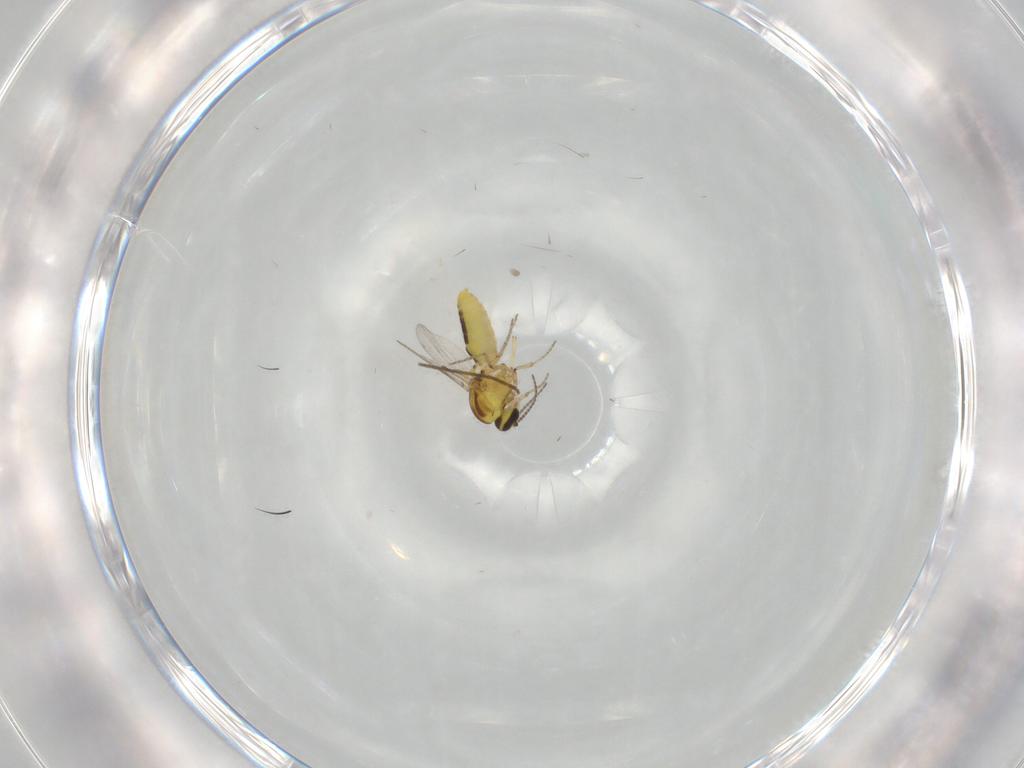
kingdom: Animalia
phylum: Arthropoda
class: Insecta
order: Diptera
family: Ceratopogonidae
